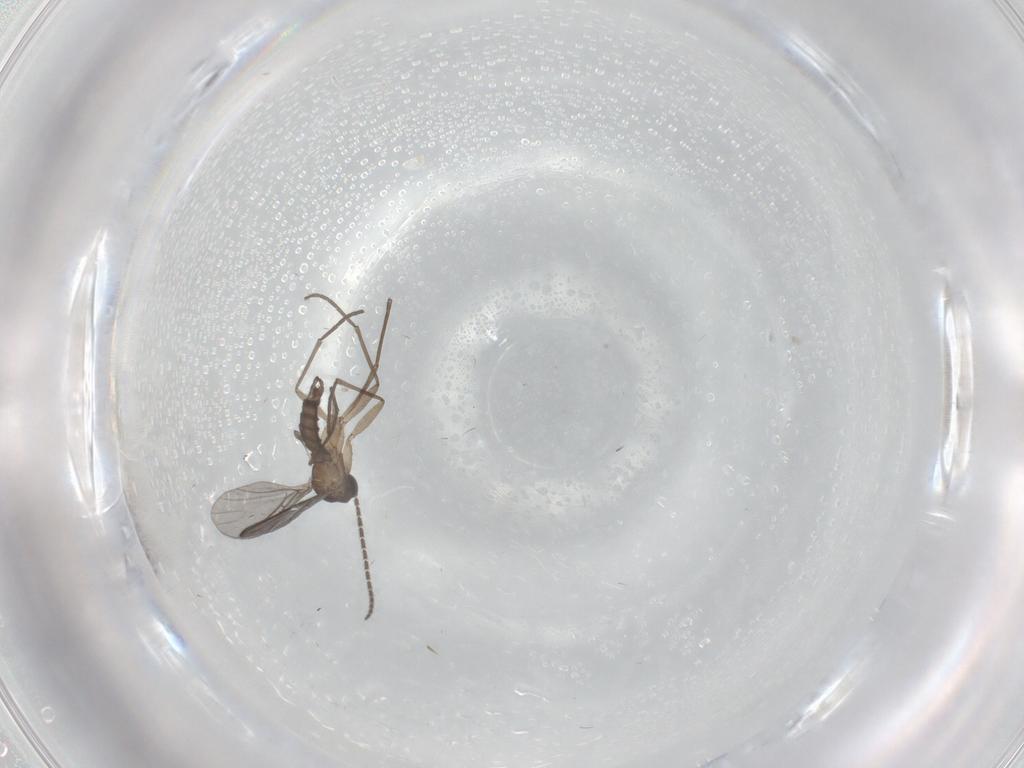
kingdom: Animalia
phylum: Arthropoda
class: Insecta
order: Diptera
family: Sciaridae
